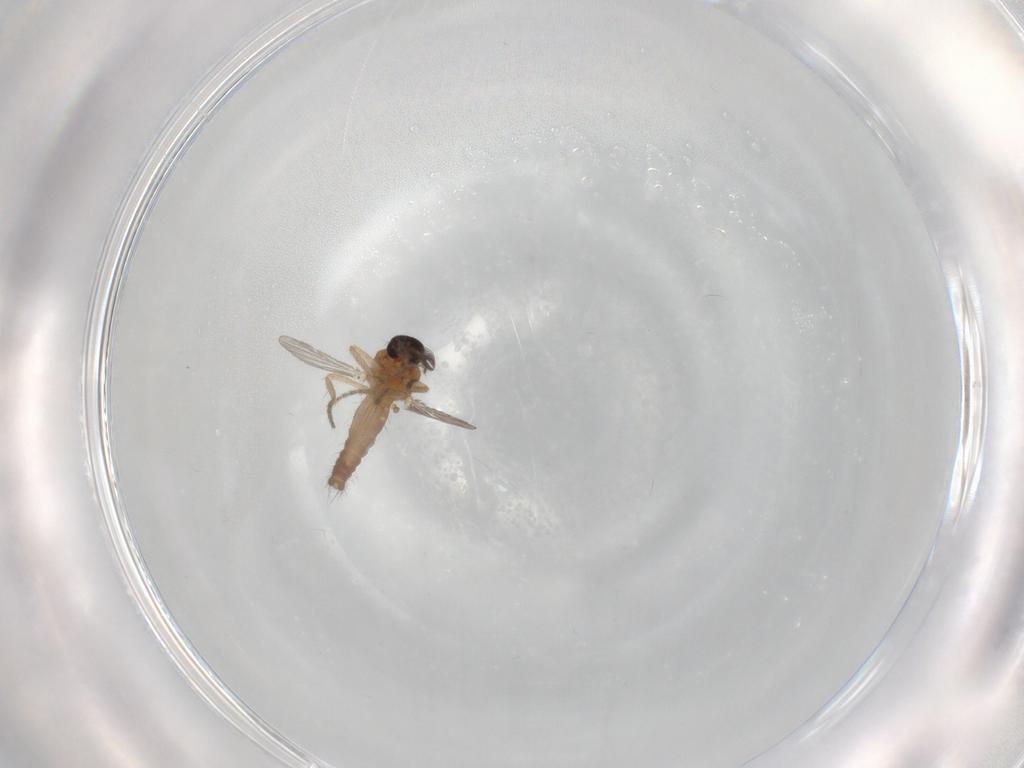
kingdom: Animalia
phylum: Arthropoda
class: Insecta
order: Diptera
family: Ceratopogonidae
